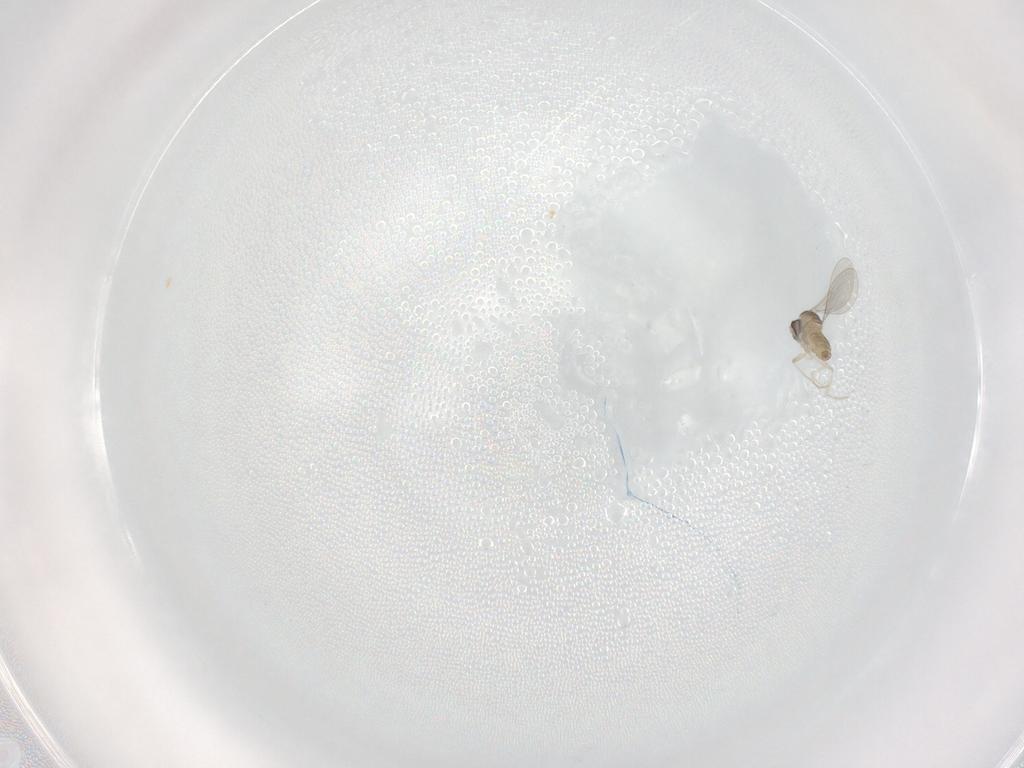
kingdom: Animalia
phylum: Arthropoda
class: Insecta
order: Diptera
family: Cecidomyiidae
